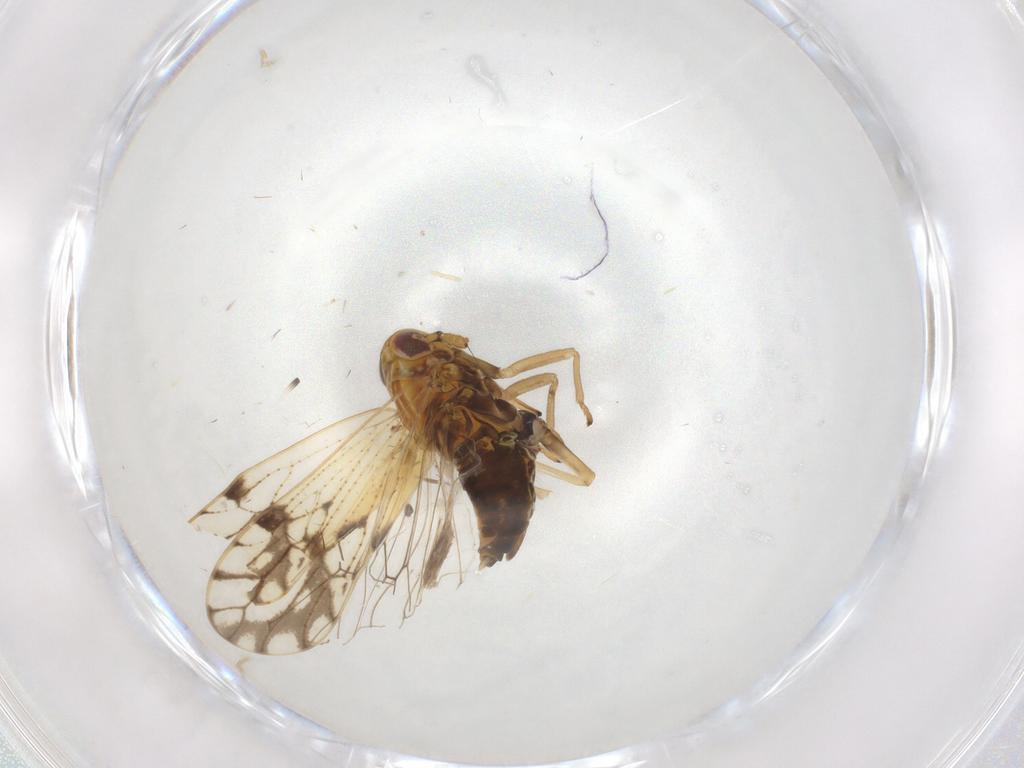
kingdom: Animalia
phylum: Arthropoda
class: Insecta
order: Hemiptera
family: Delphacidae
